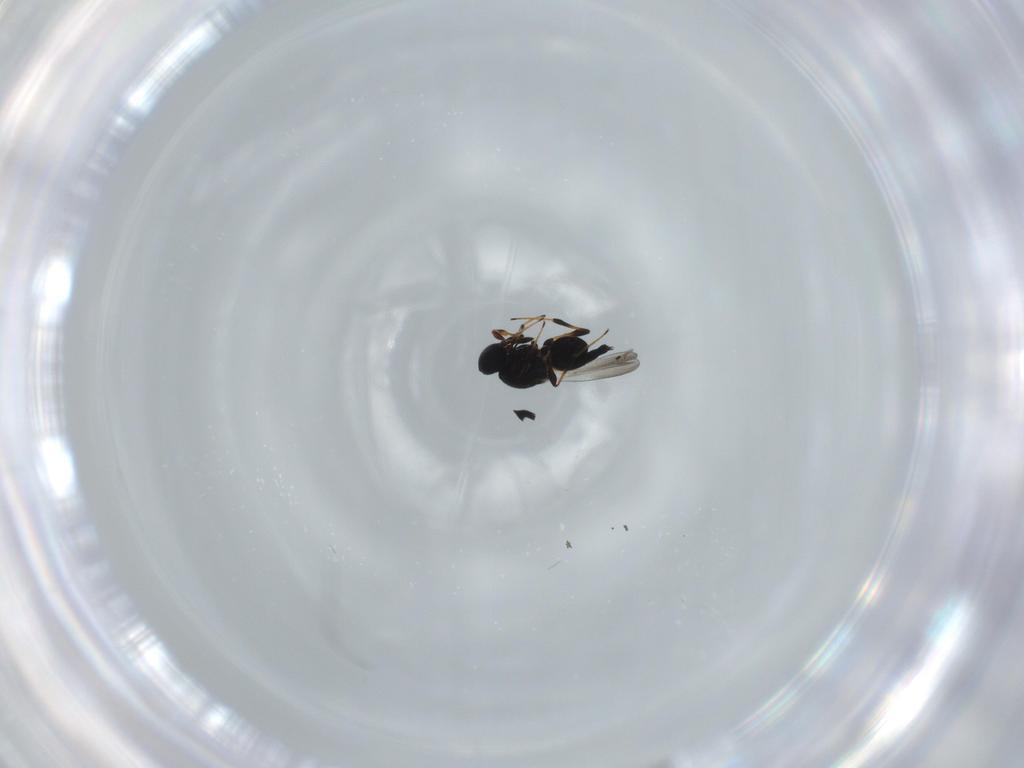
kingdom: Animalia
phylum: Arthropoda
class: Insecta
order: Hymenoptera
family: Platygastridae
